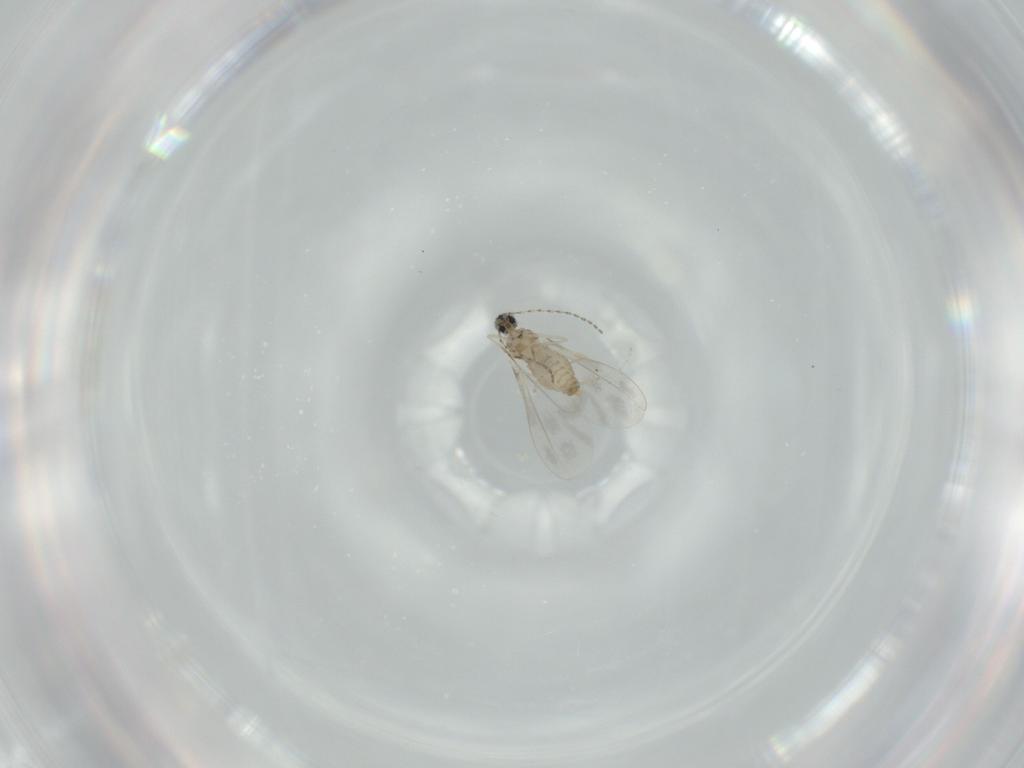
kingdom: Animalia
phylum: Arthropoda
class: Insecta
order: Diptera
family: Cecidomyiidae
